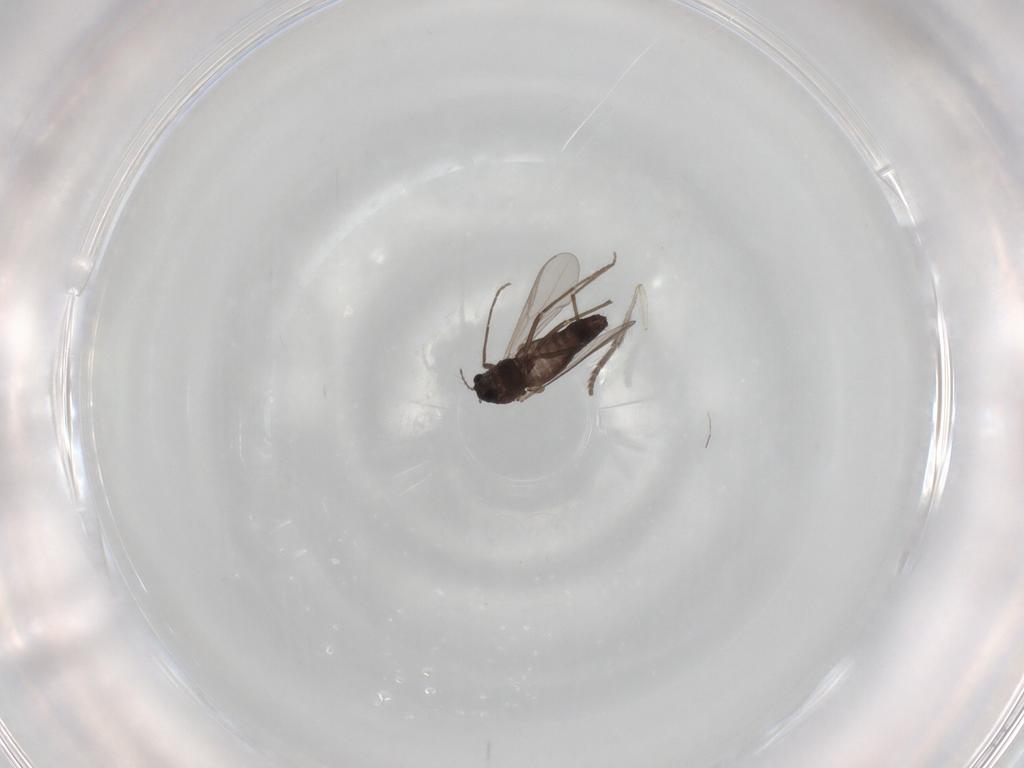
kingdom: Animalia
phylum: Arthropoda
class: Insecta
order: Diptera
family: Chironomidae
